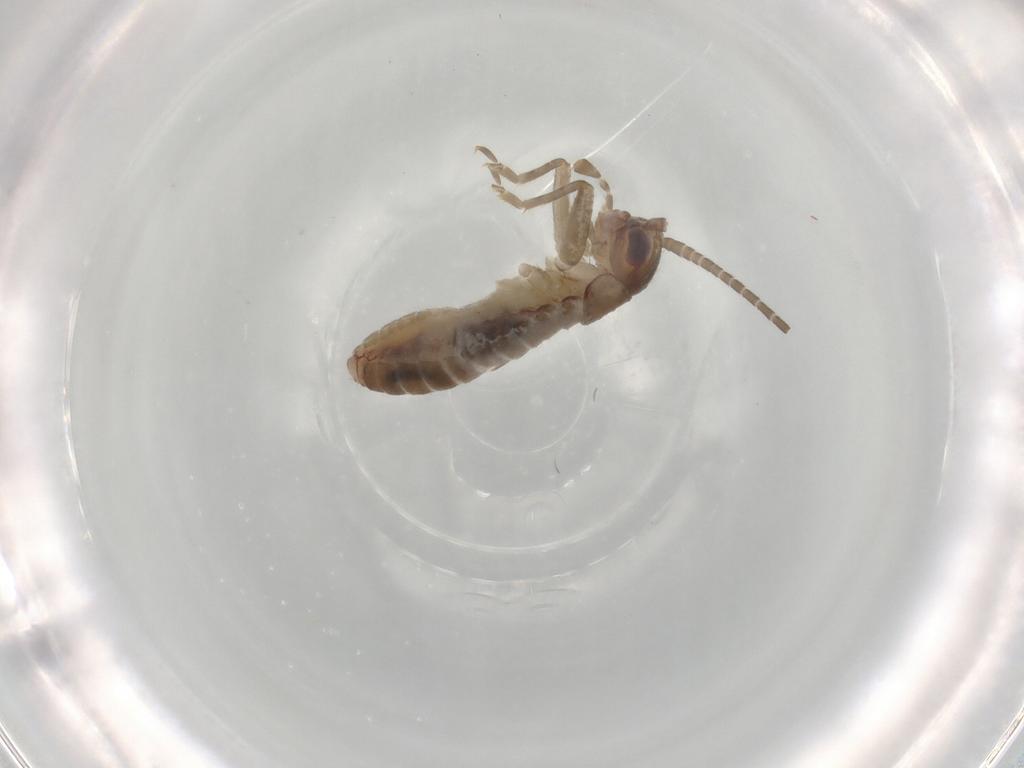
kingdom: Animalia
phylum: Arthropoda
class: Insecta
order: Orthoptera
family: Gryllidae
